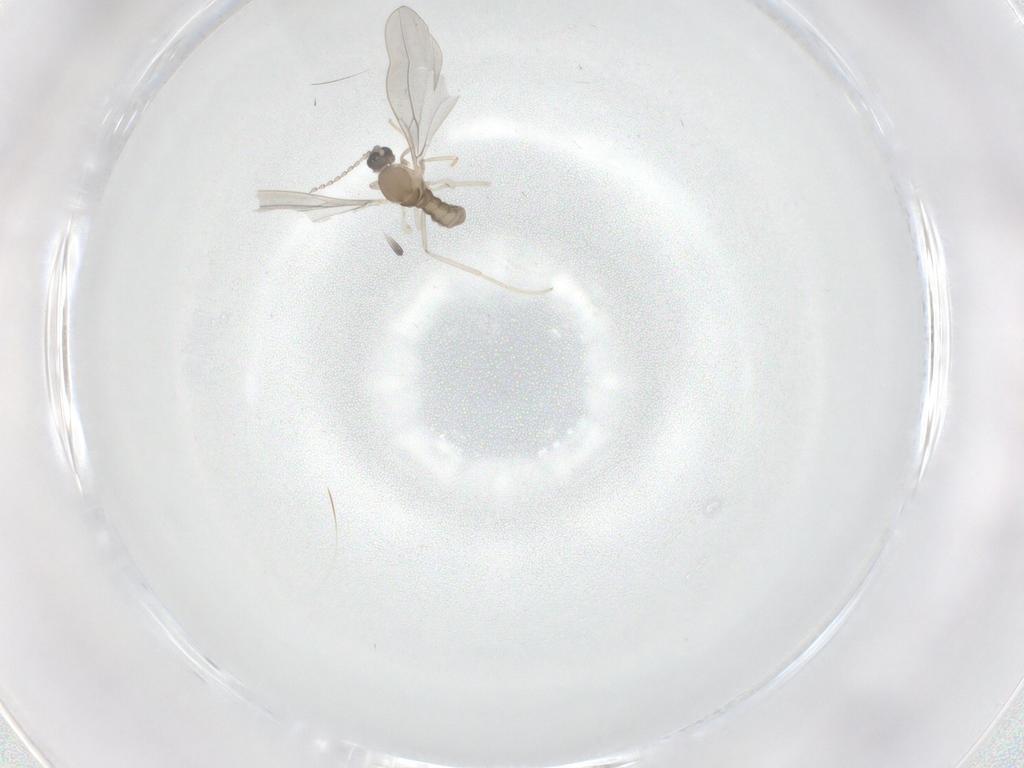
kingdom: Animalia
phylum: Arthropoda
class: Insecta
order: Diptera
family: Cecidomyiidae
